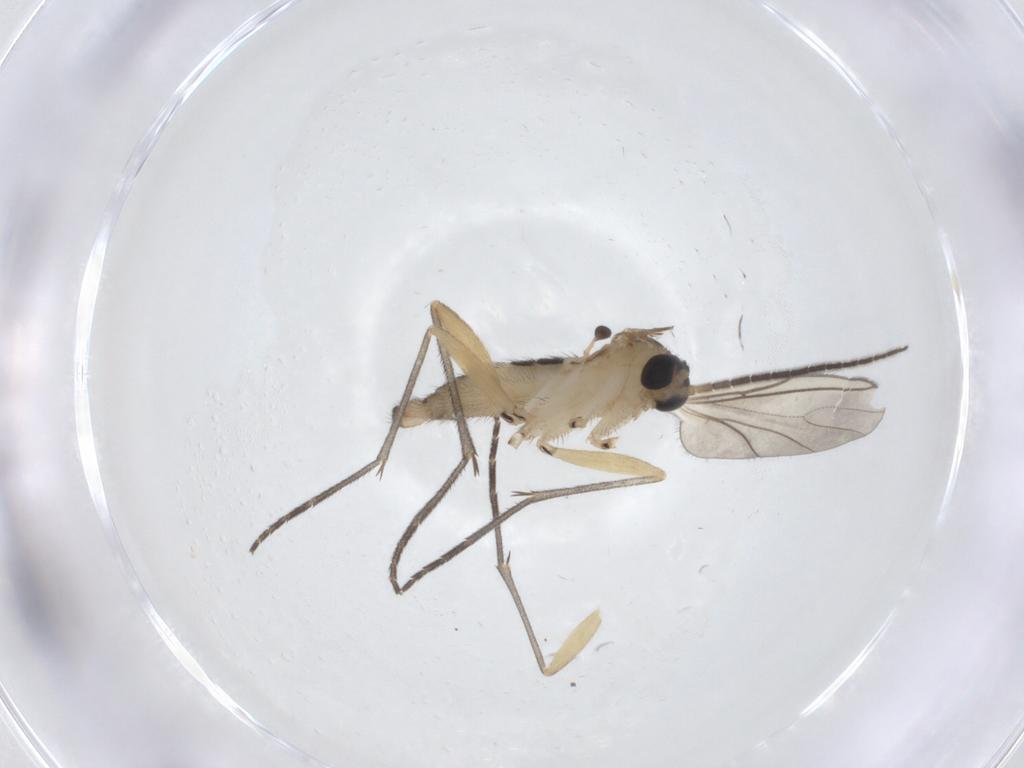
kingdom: Animalia
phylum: Arthropoda
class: Insecta
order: Diptera
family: Sciaridae
